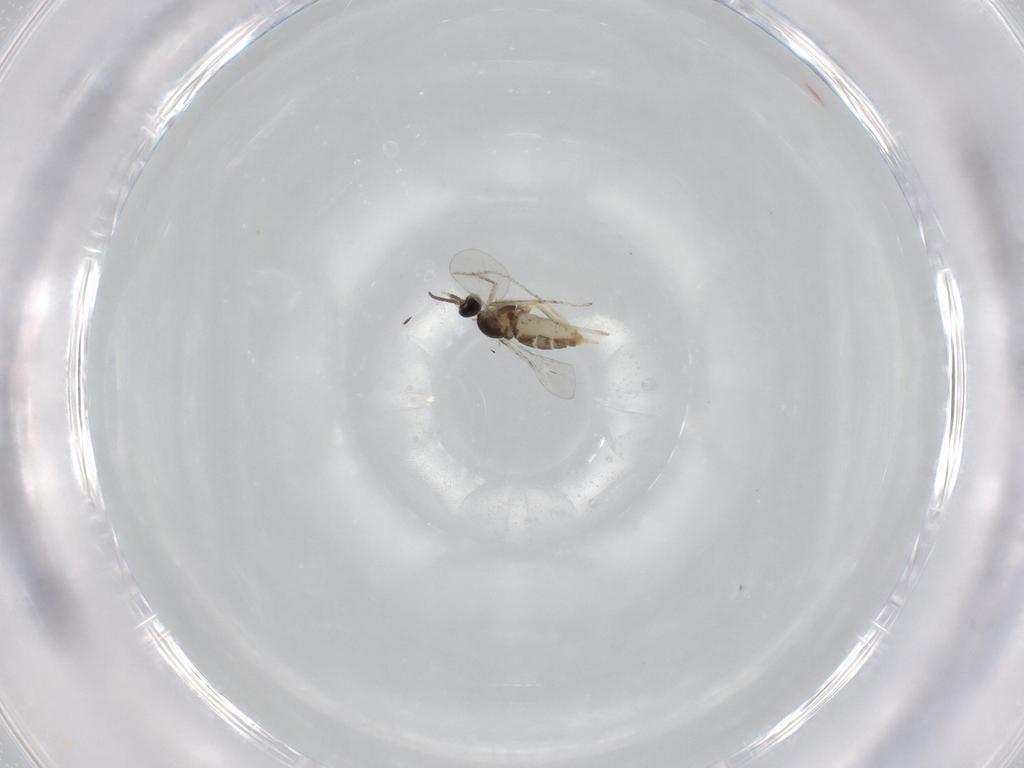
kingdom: Animalia
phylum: Arthropoda
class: Insecta
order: Diptera
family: Cecidomyiidae
